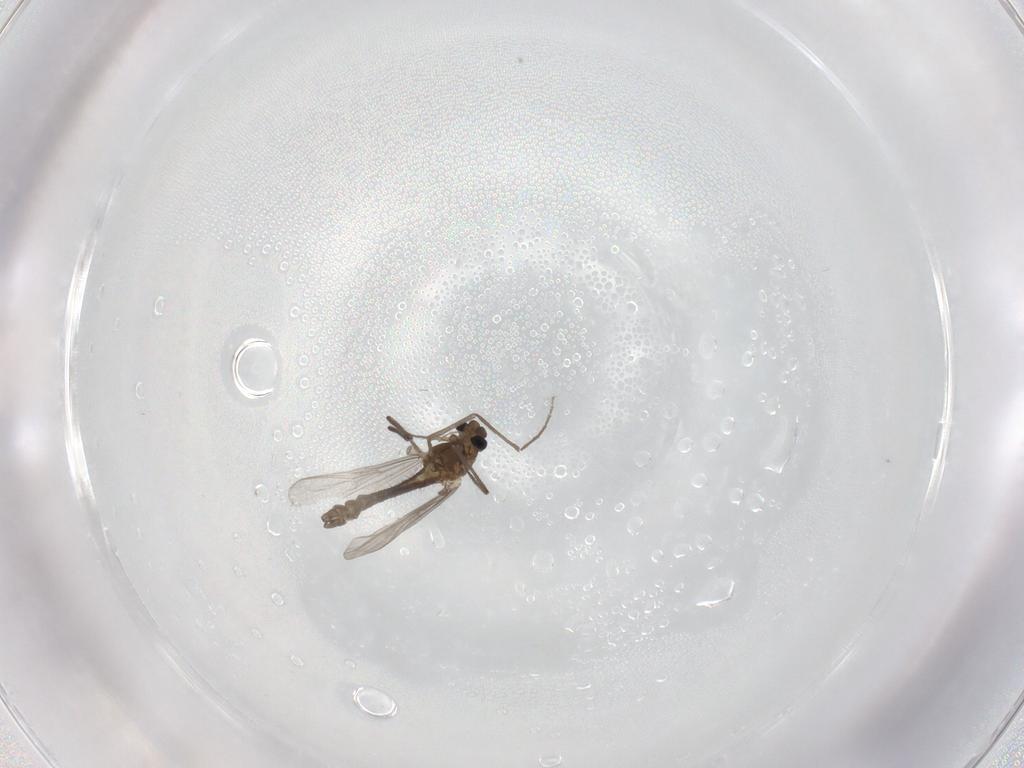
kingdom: Animalia
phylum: Arthropoda
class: Insecta
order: Diptera
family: Chironomidae
